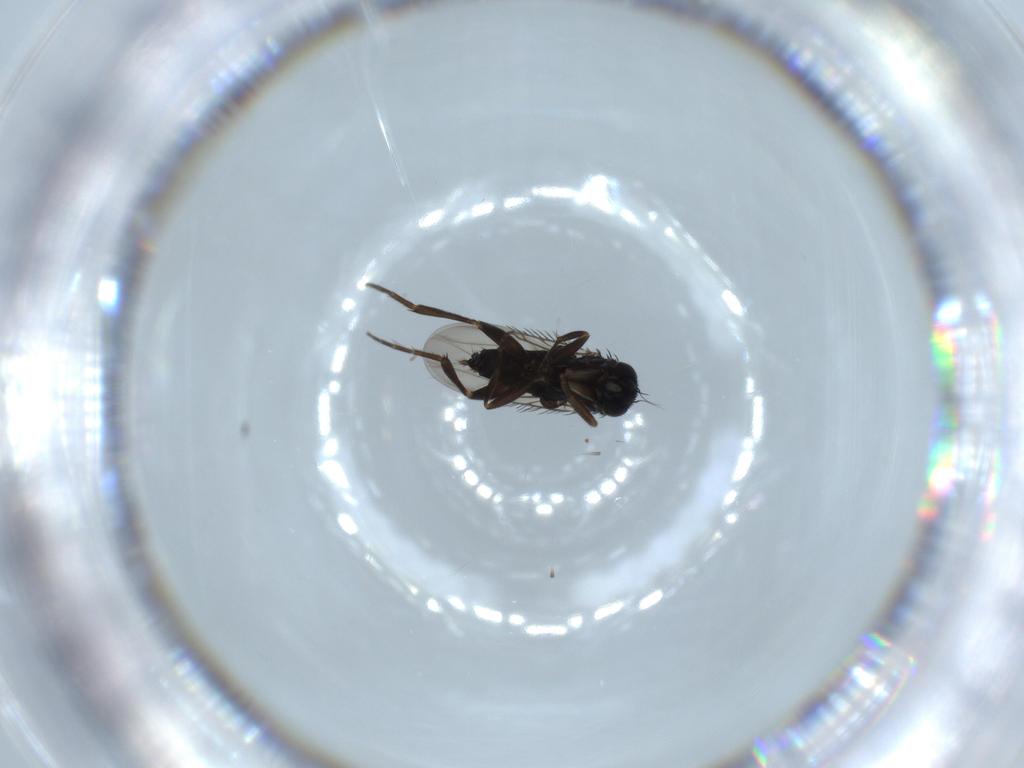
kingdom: Animalia
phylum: Arthropoda
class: Insecta
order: Diptera
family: Phoridae
